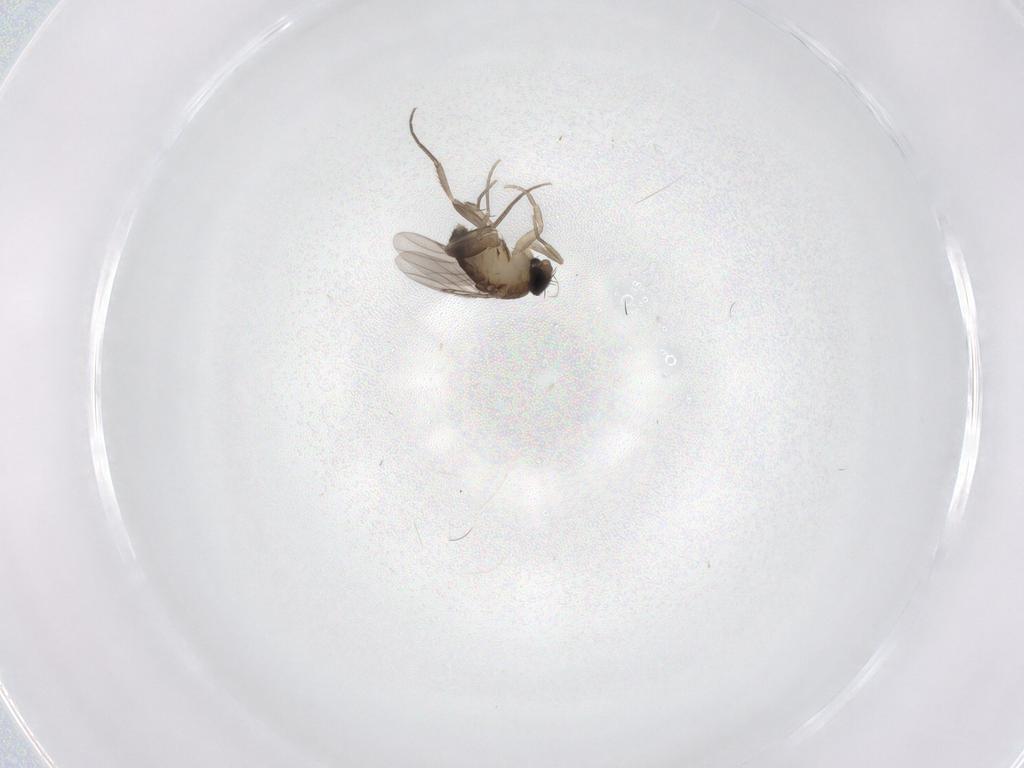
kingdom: Animalia
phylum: Arthropoda
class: Insecta
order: Diptera
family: Phoridae
